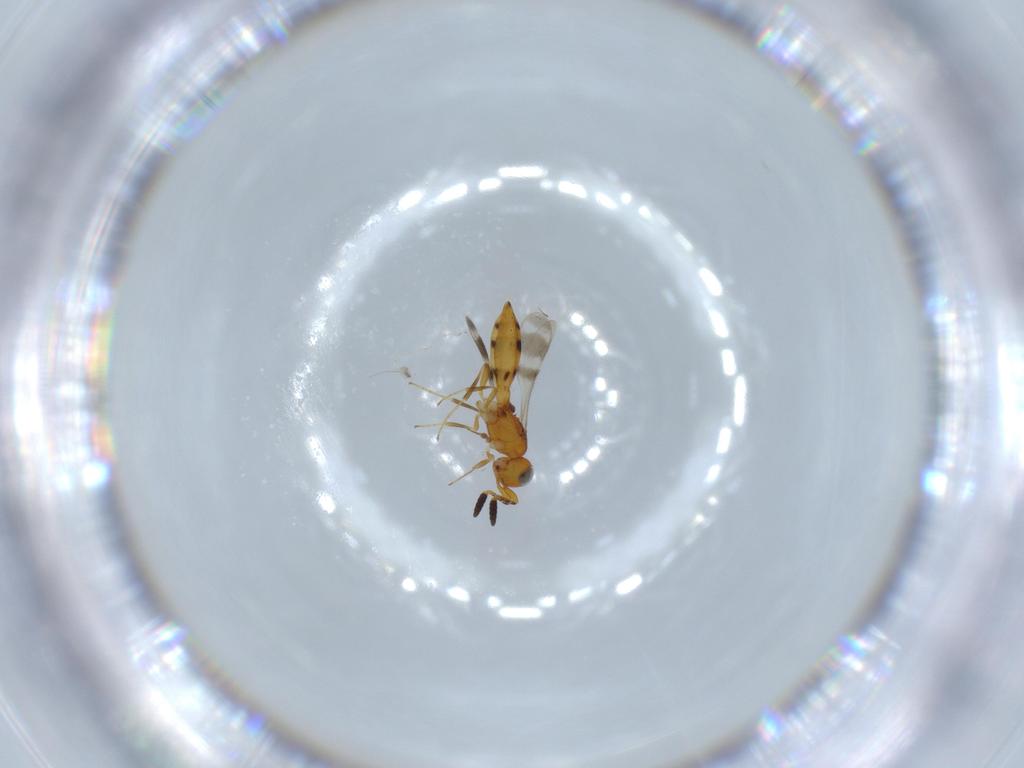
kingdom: Animalia
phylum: Arthropoda
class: Insecta
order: Hymenoptera
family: Scelionidae
